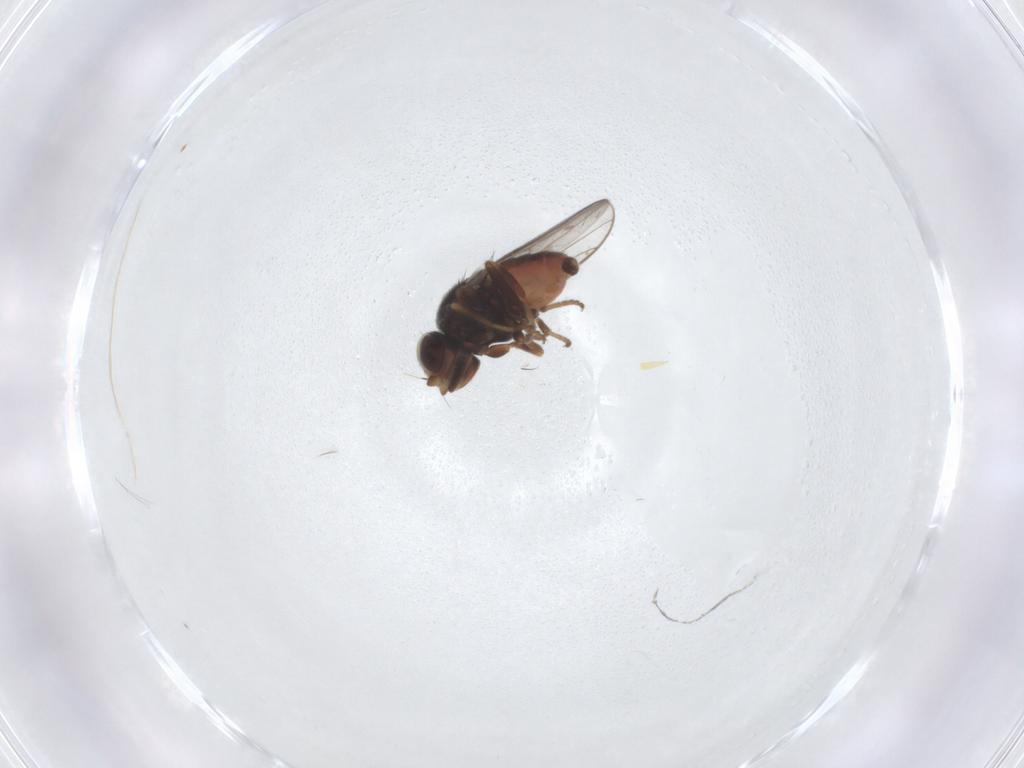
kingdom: Animalia
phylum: Arthropoda
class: Insecta
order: Diptera
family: Chloropidae
